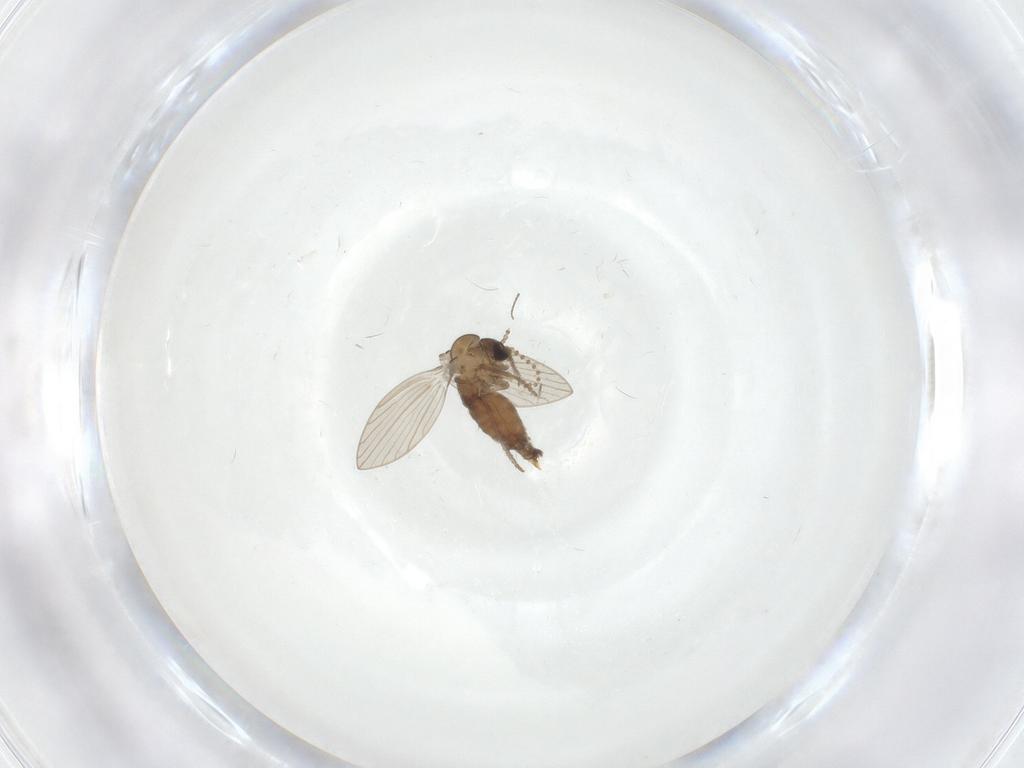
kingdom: Animalia
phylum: Arthropoda
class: Insecta
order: Diptera
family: Psychodidae
